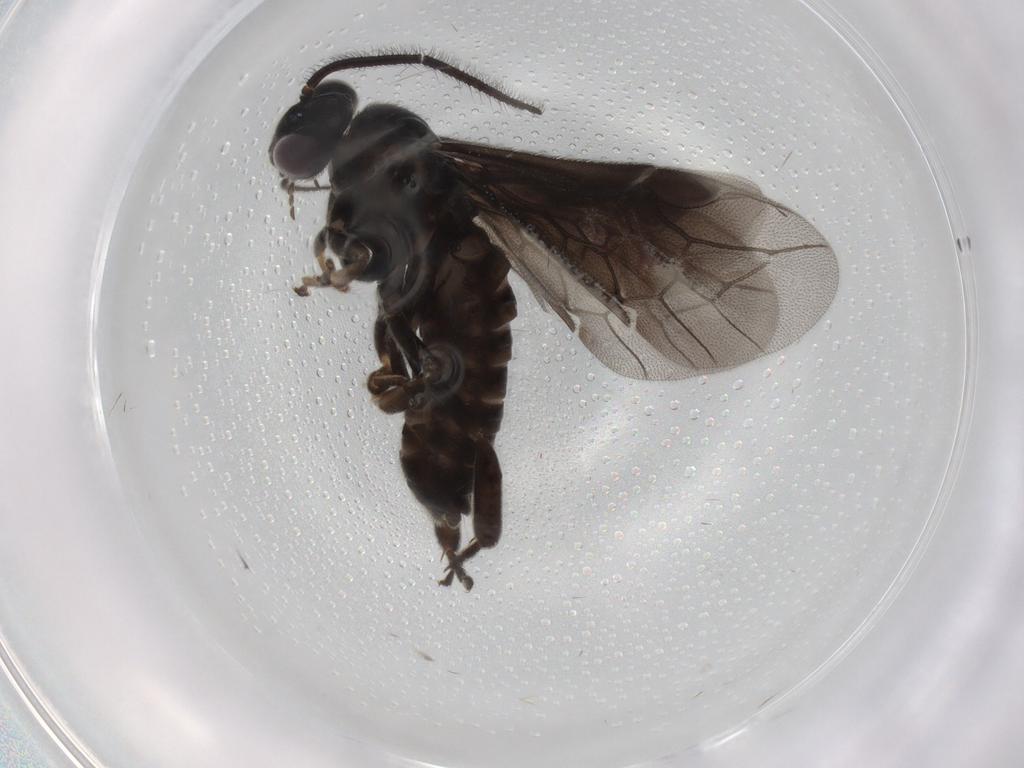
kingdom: Animalia
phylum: Arthropoda
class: Insecta
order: Hymenoptera
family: Argidae
